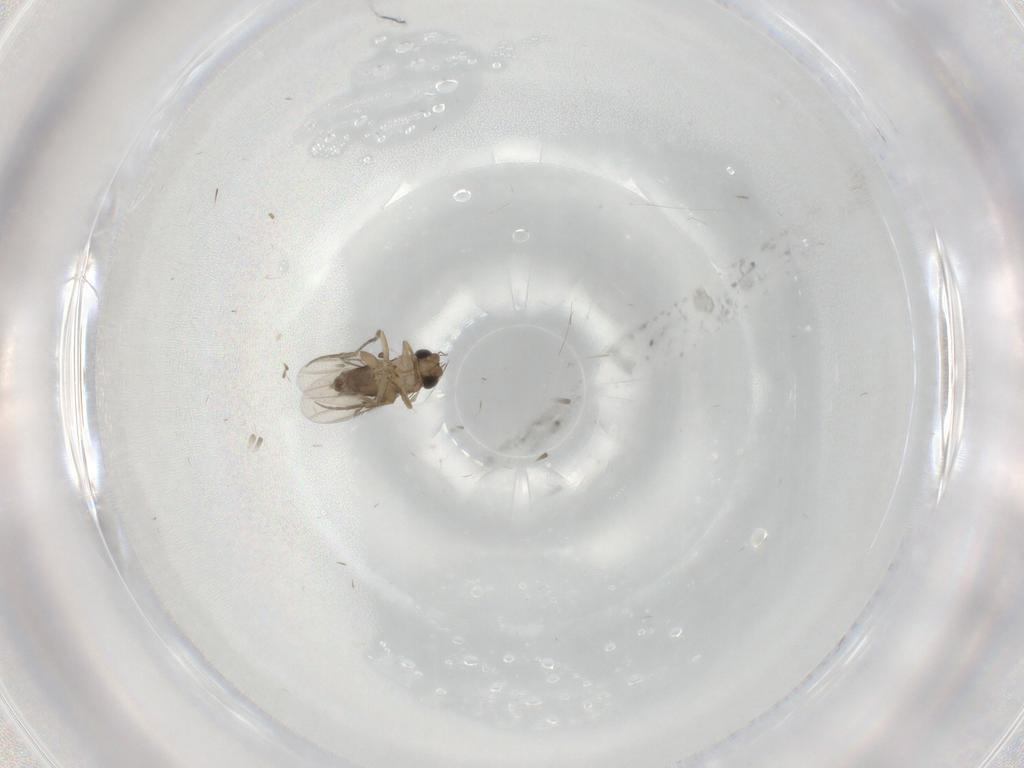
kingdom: Animalia
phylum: Arthropoda
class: Insecta
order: Diptera
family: Phoridae
